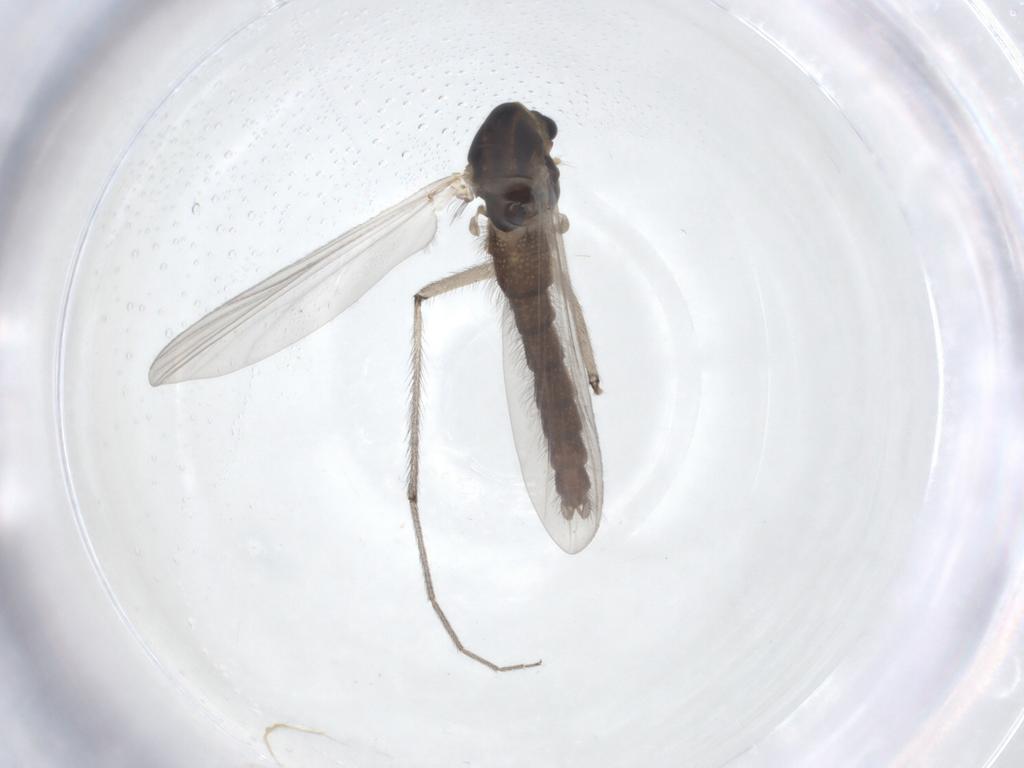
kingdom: Animalia
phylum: Arthropoda
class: Insecta
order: Diptera
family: Chironomidae
